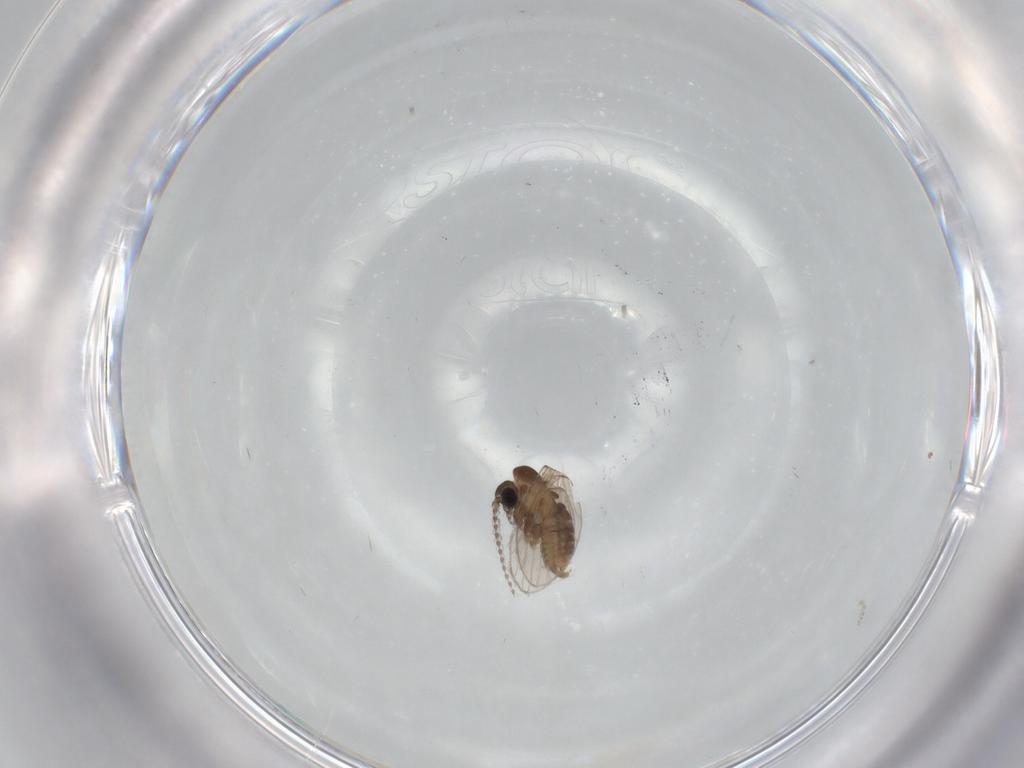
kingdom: Animalia
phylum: Arthropoda
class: Insecta
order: Diptera
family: Sciaridae
